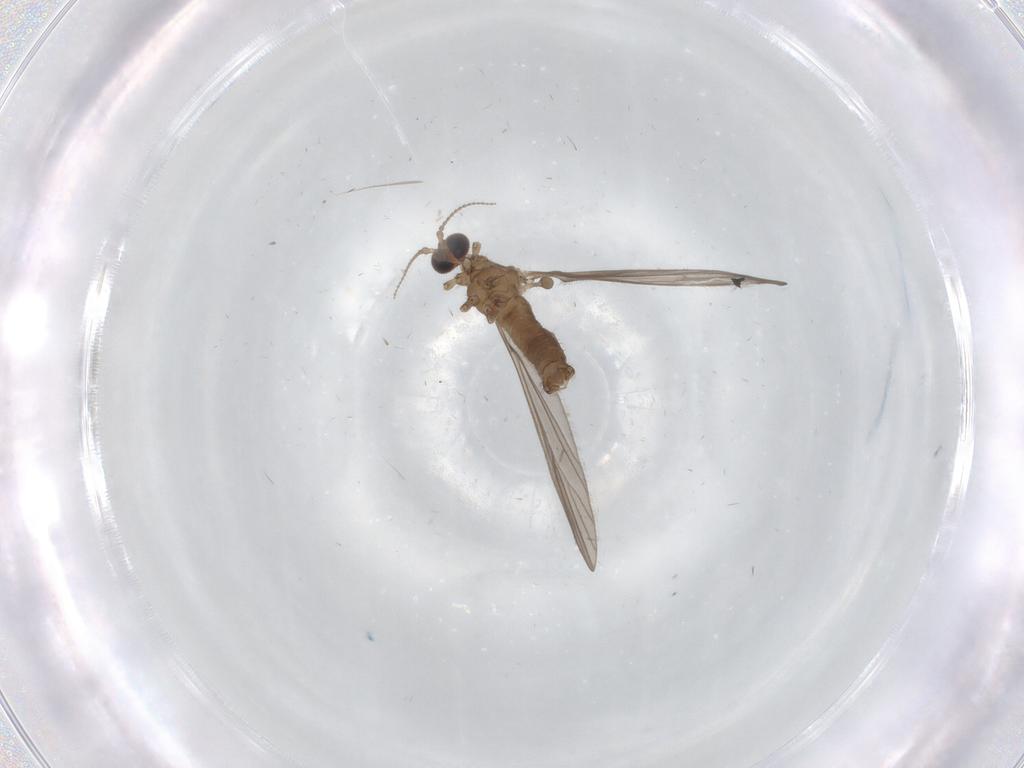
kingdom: Animalia
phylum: Arthropoda
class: Insecta
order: Diptera
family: Limoniidae
